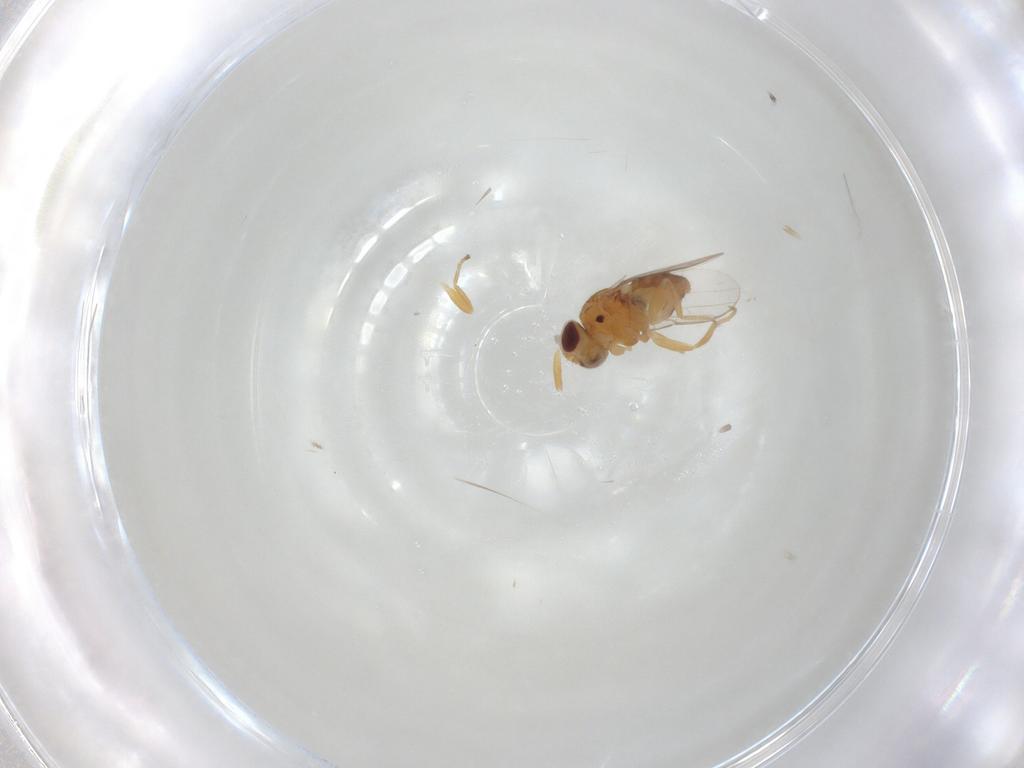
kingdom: Animalia
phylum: Arthropoda
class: Insecta
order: Diptera
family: Chloropidae
